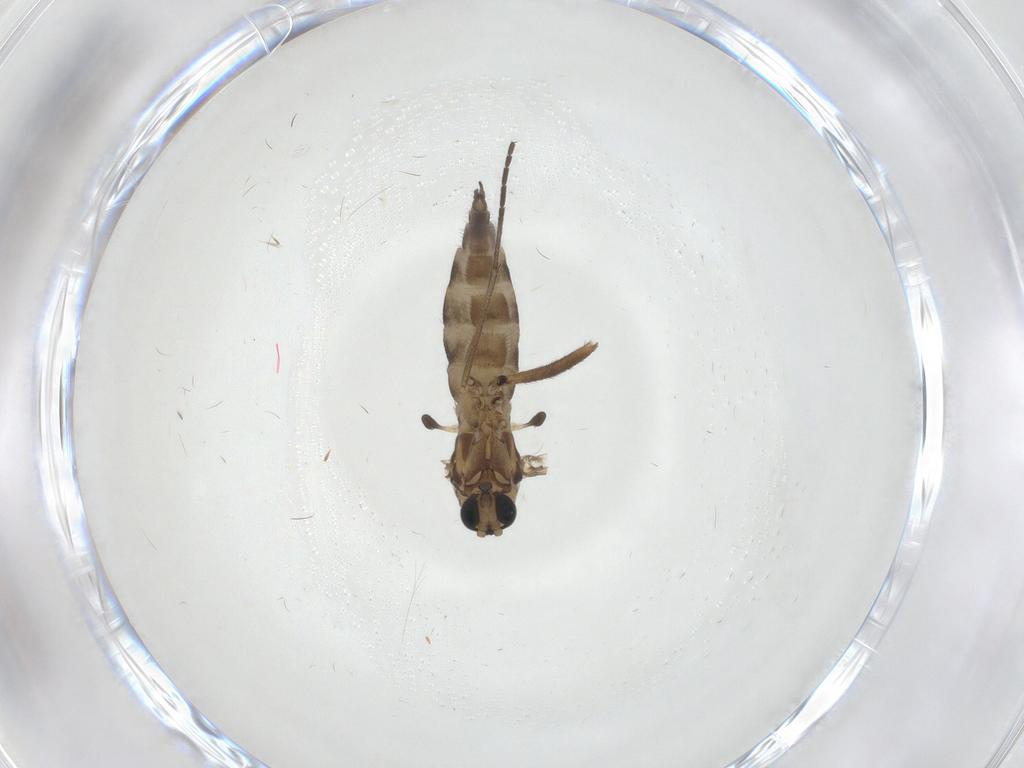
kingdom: Animalia
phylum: Arthropoda
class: Insecta
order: Diptera
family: Sciaridae
